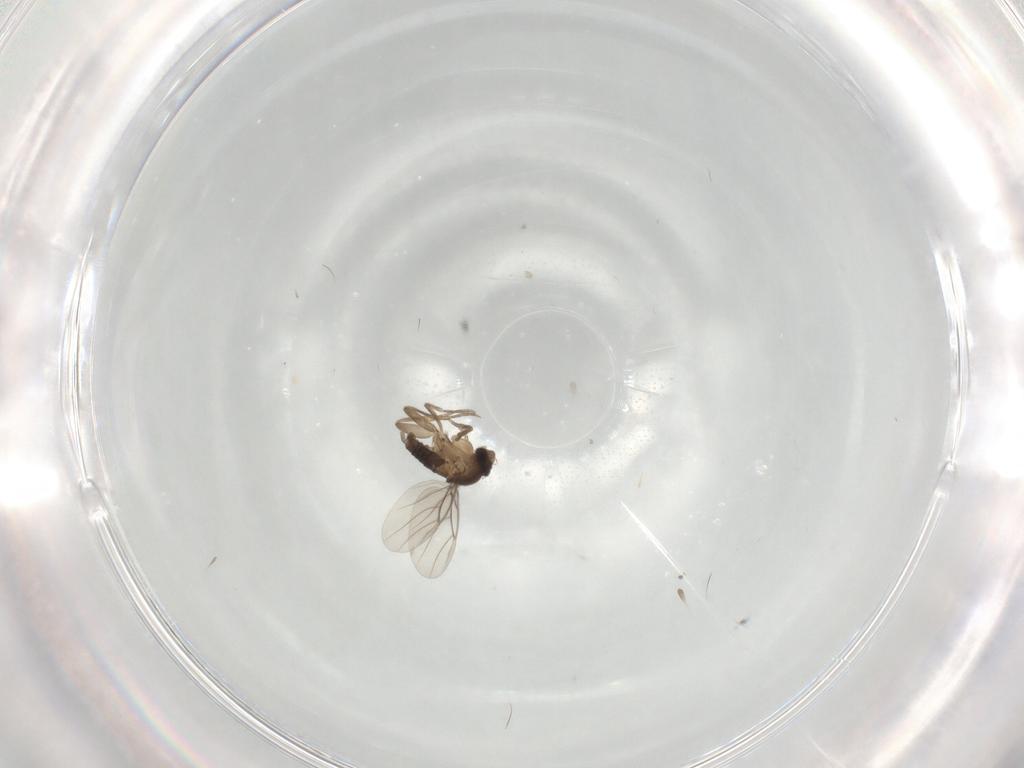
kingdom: Animalia
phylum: Arthropoda
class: Insecta
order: Diptera
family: Phoridae
